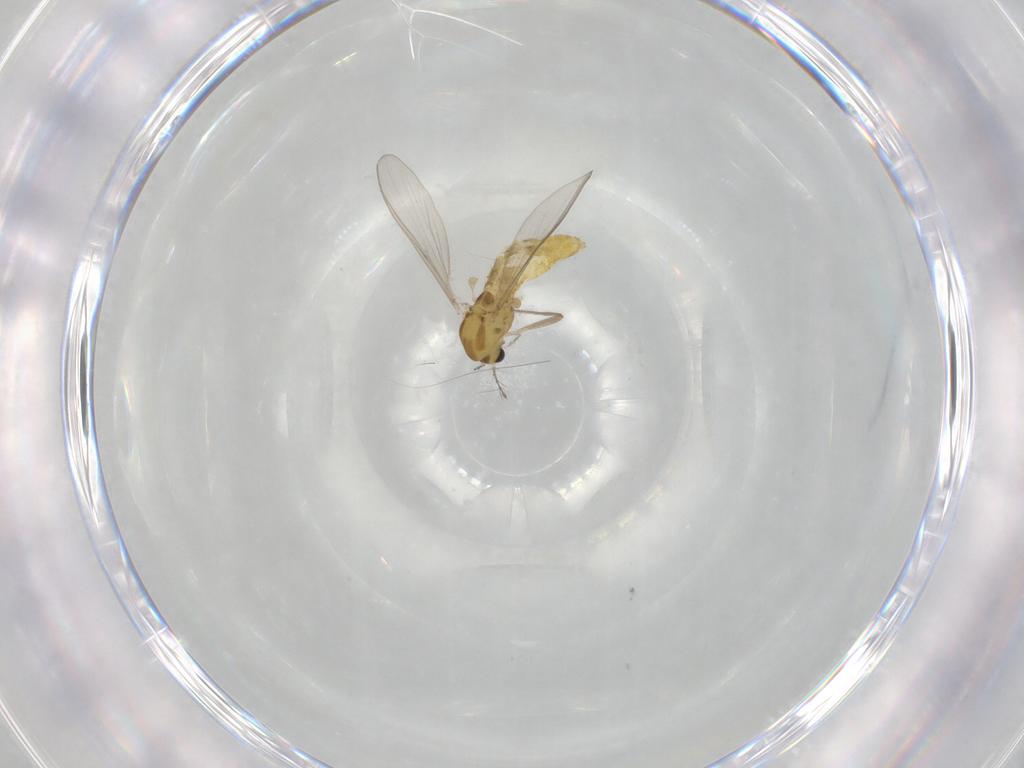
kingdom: Animalia
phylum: Arthropoda
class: Insecta
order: Diptera
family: Chironomidae
